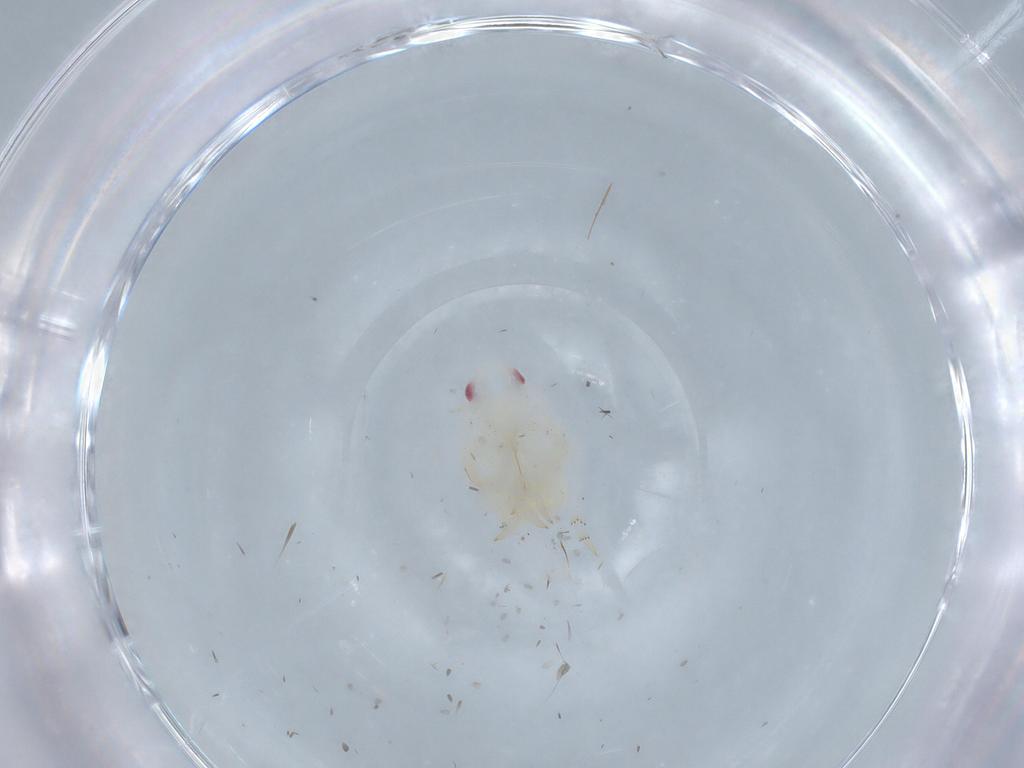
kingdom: Animalia
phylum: Arthropoda
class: Insecta
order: Hemiptera
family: Flatidae
